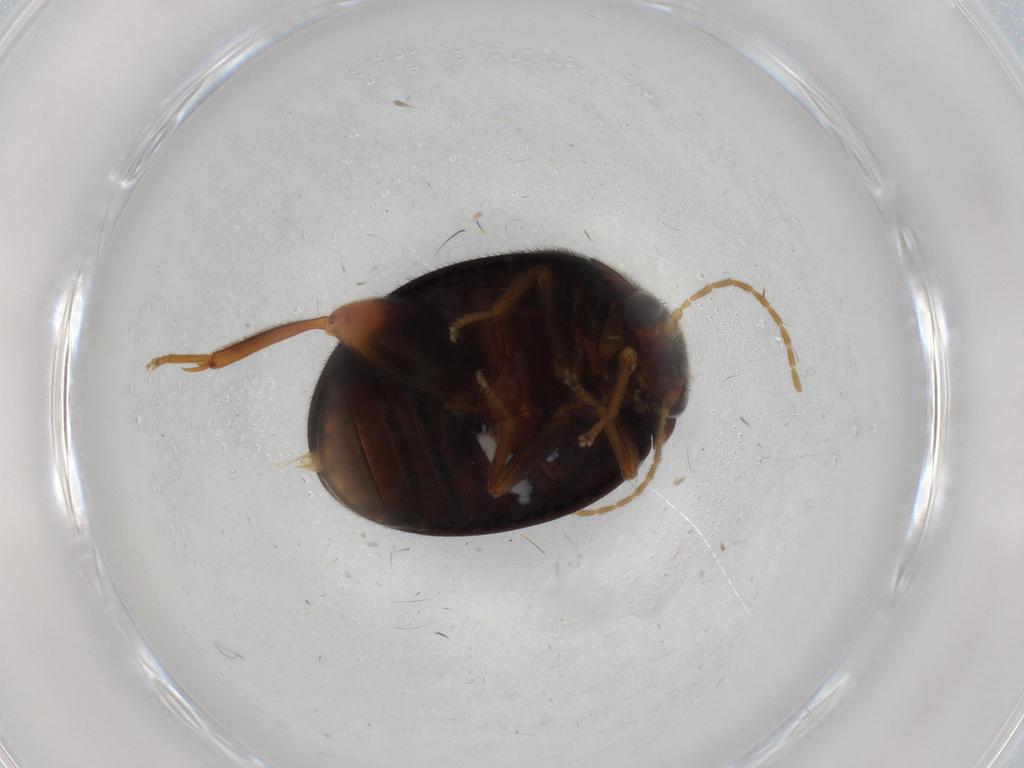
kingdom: Animalia
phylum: Arthropoda
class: Insecta
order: Coleoptera
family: Scirtidae
